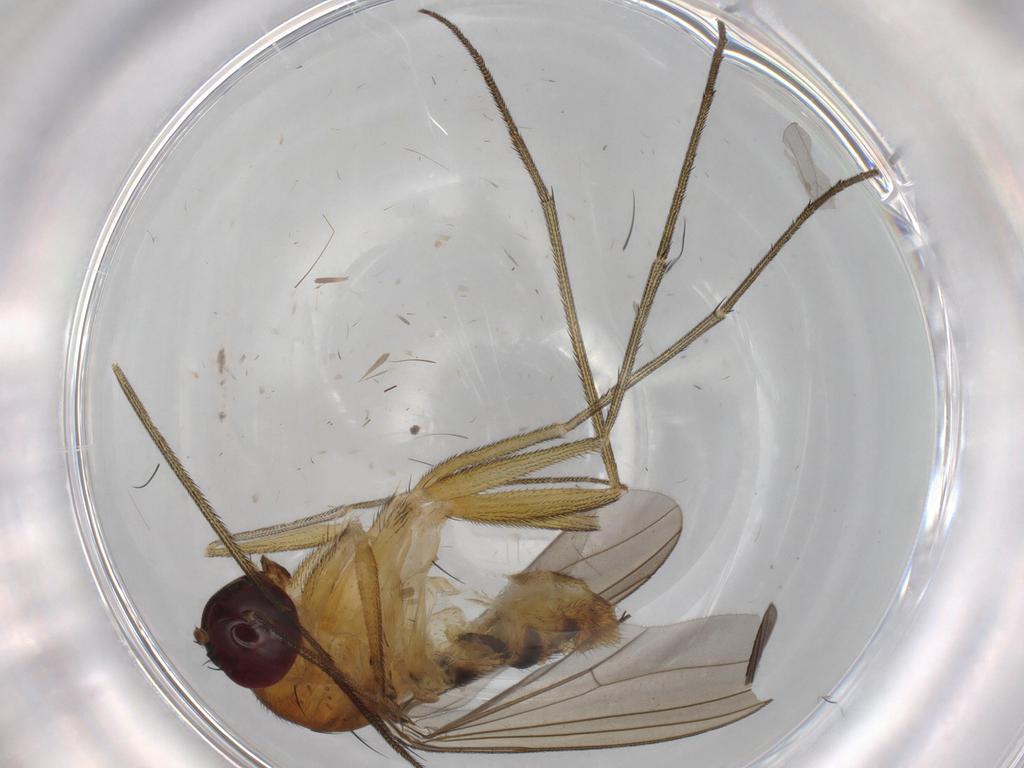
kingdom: Animalia
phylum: Arthropoda
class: Insecta
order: Diptera
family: Dolichopodidae
